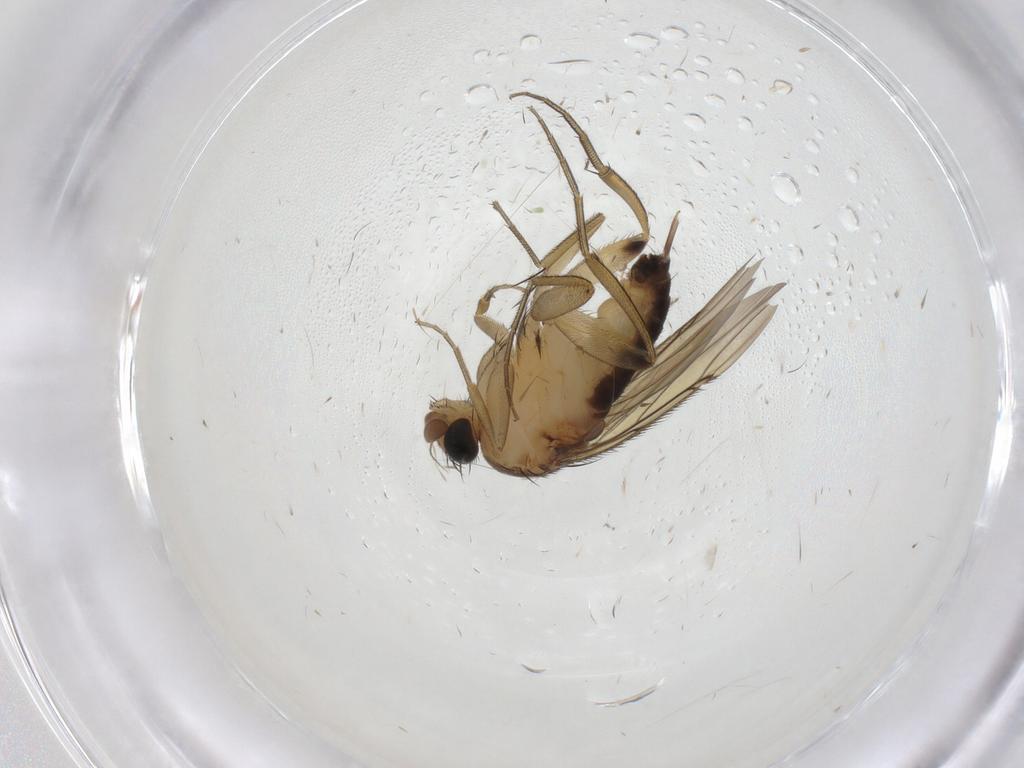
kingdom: Animalia
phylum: Arthropoda
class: Insecta
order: Diptera
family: Phoridae
